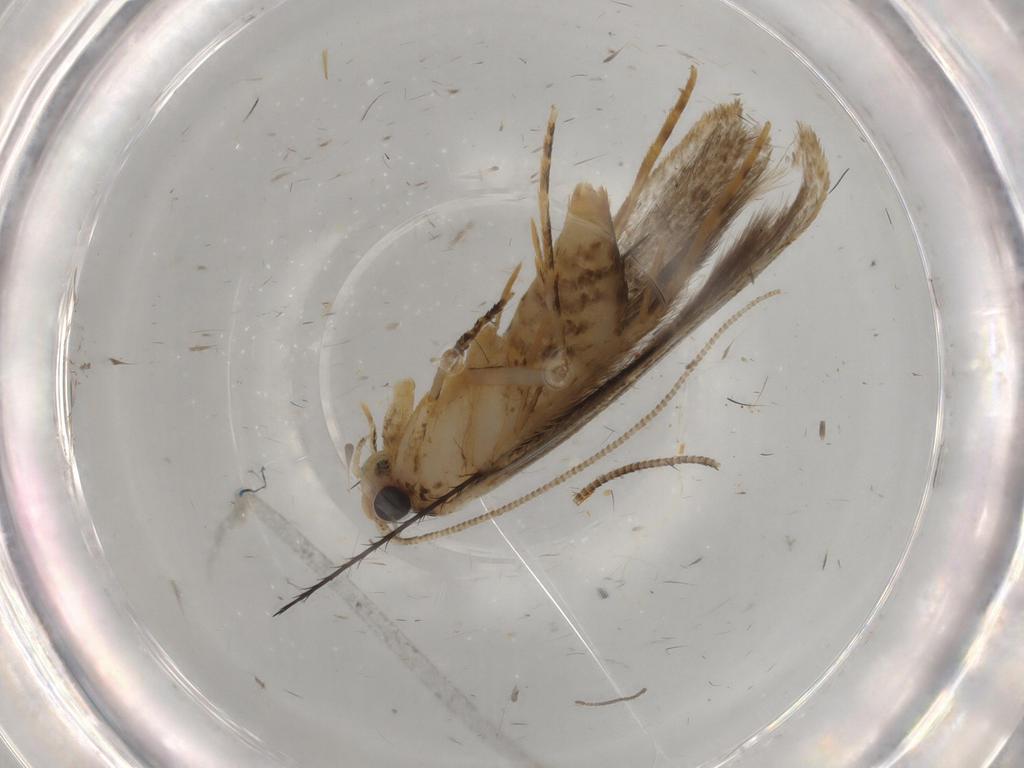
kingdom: Animalia
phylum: Arthropoda
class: Insecta
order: Lepidoptera
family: Tineidae
